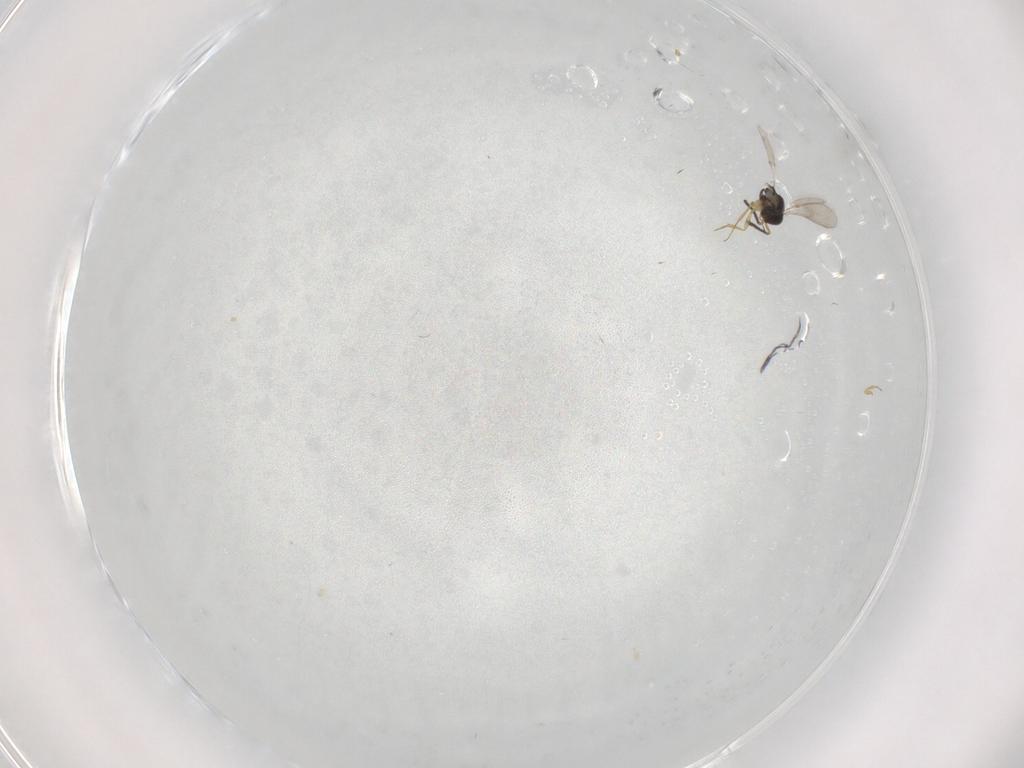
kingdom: Animalia
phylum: Arthropoda
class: Insecta
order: Hymenoptera
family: Scelionidae
